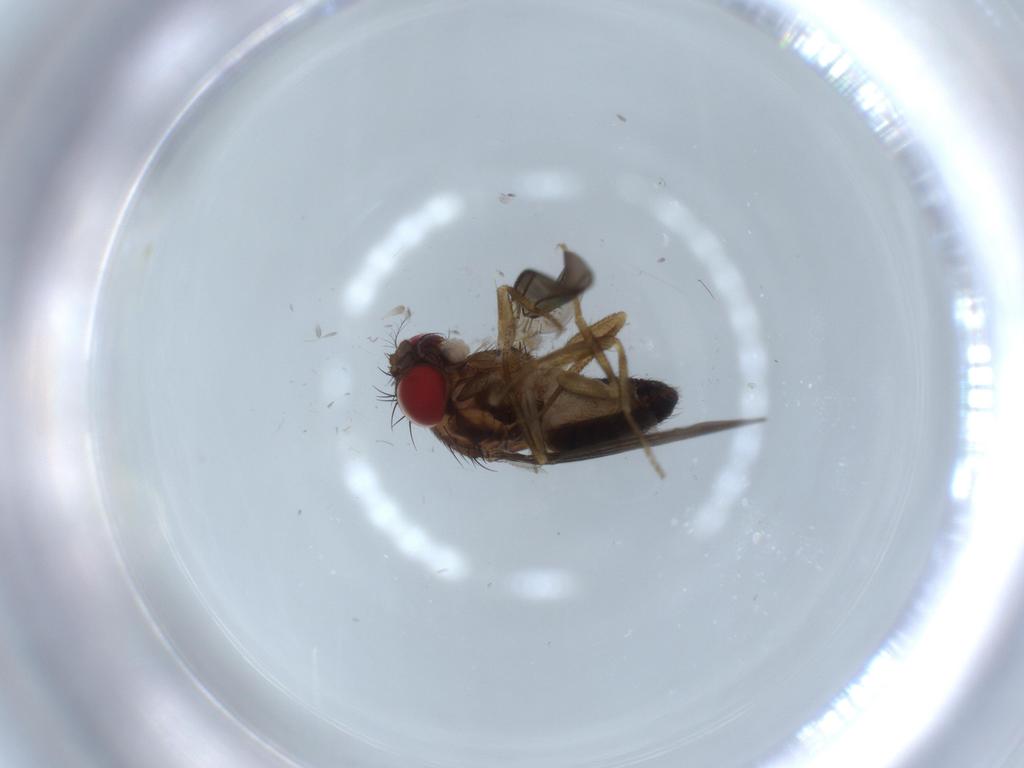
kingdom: Animalia
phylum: Arthropoda
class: Insecta
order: Diptera
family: Drosophilidae
